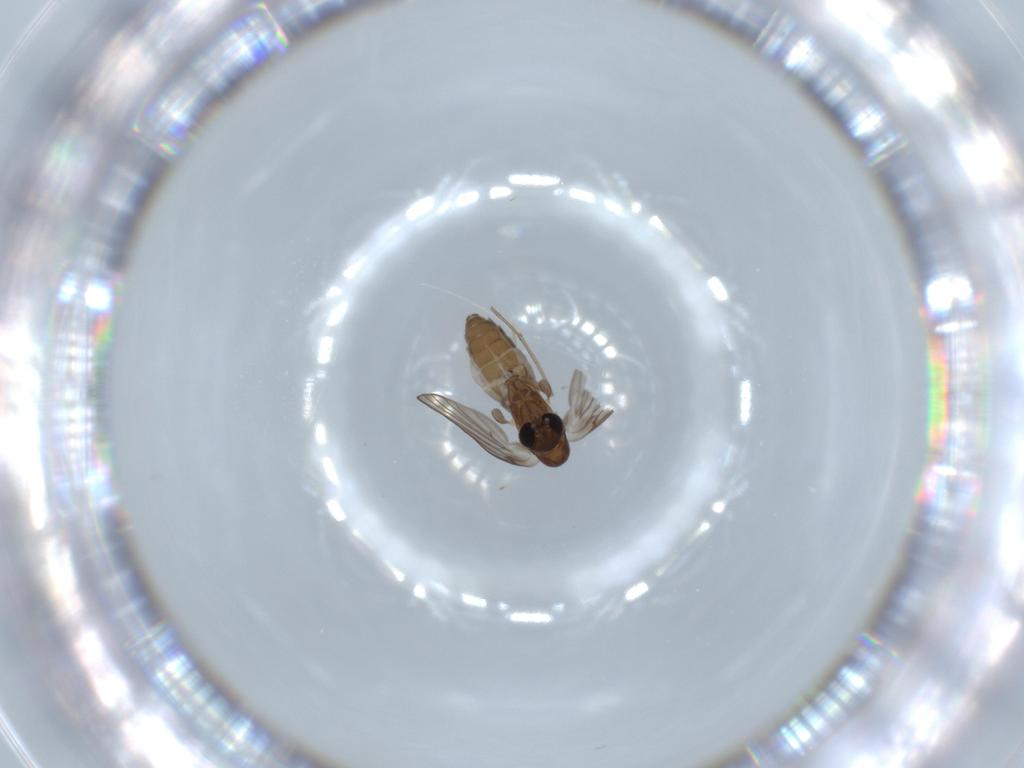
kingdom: Animalia
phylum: Arthropoda
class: Insecta
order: Diptera
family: Psychodidae
